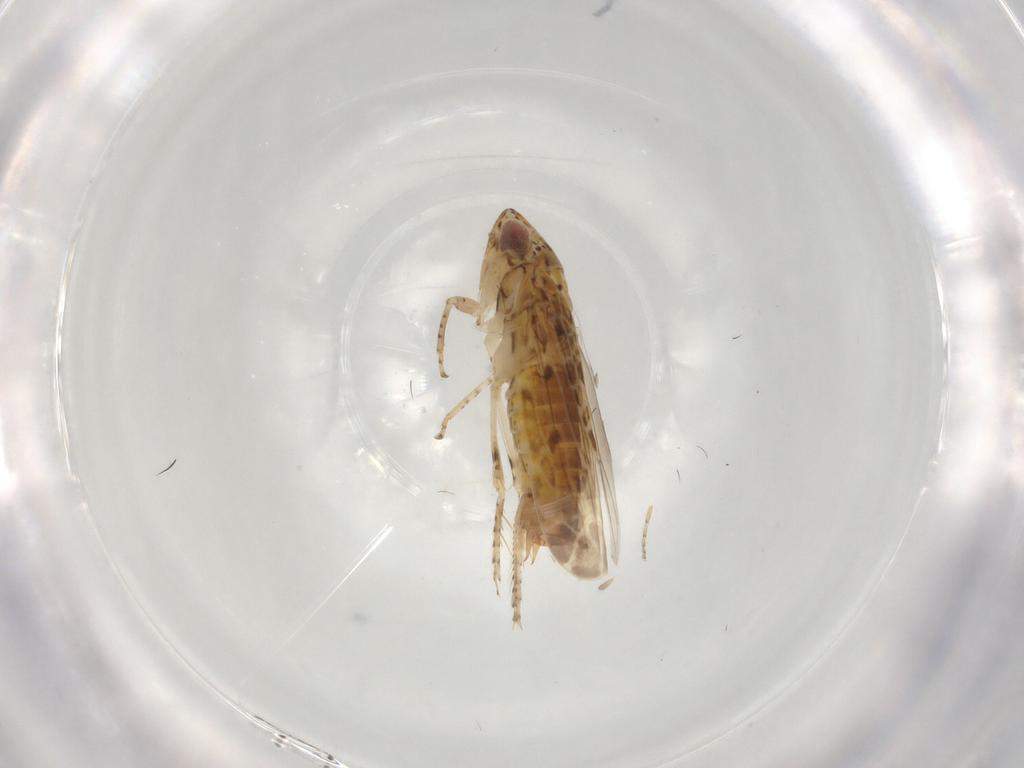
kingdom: Animalia
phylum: Arthropoda
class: Insecta
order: Hemiptera
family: Cicadellidae
